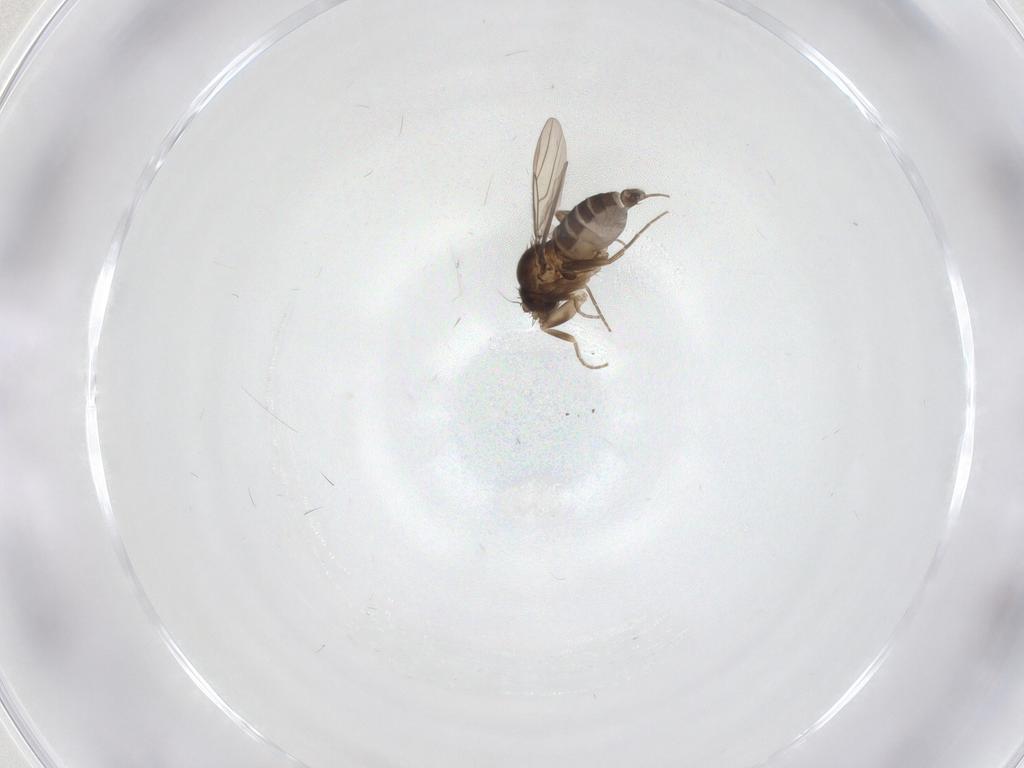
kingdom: Animalia
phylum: Arthropoda
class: Insecta
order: Diptera
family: Phoridae
